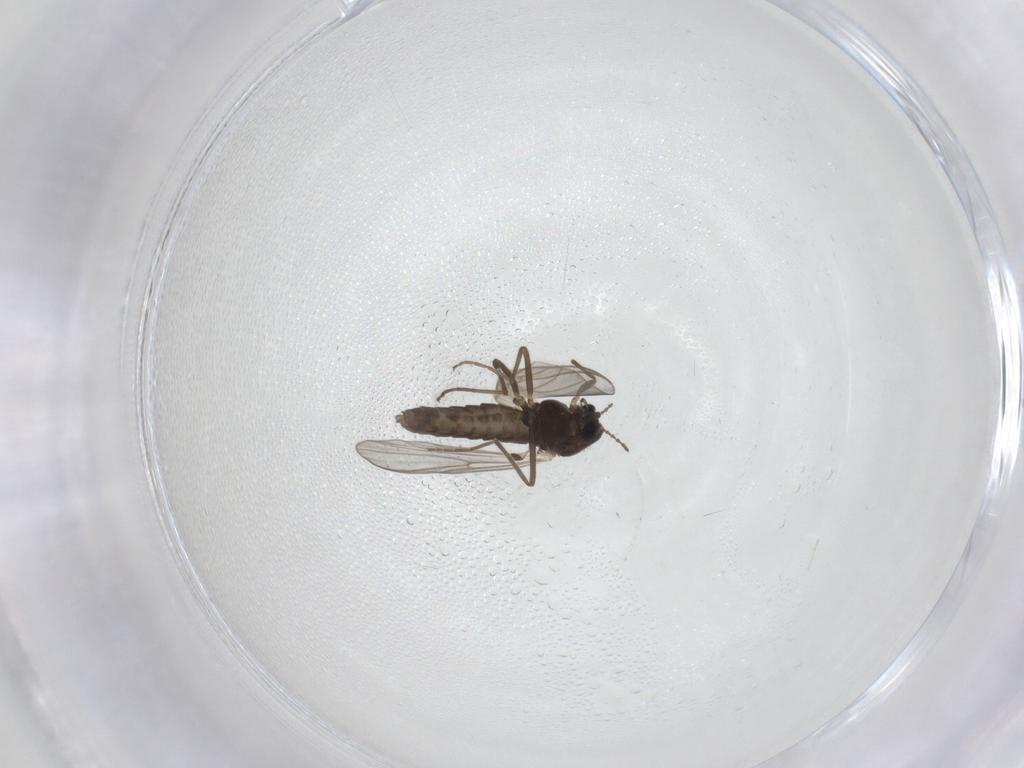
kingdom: Animalia
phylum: Arthropoda
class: Insecta
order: Diptera
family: Chironomidae
